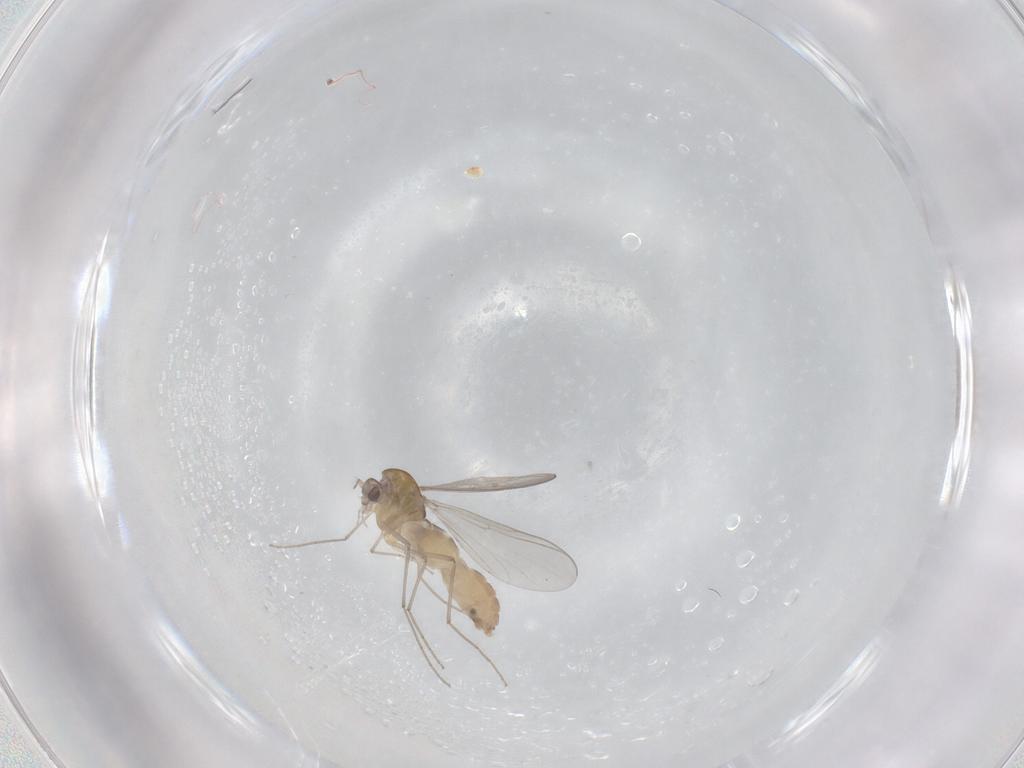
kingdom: Animalia
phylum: Arthropoda
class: Insecta
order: Diptera
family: Chironomidae
